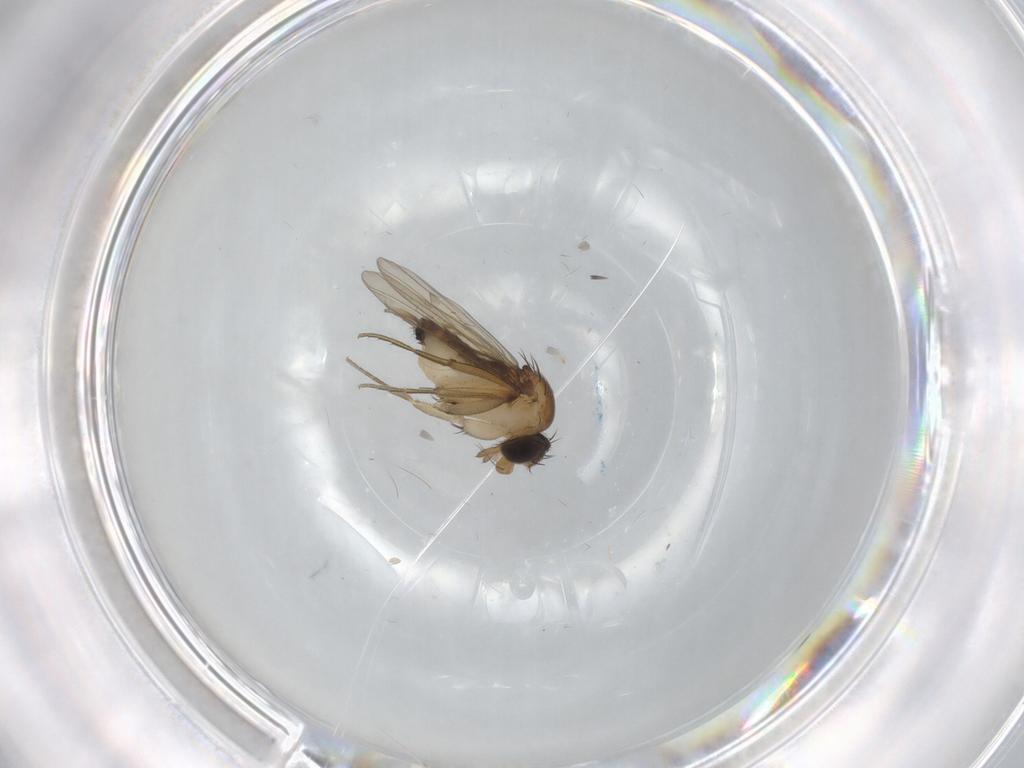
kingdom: Animalia
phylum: Arthropoda
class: Insecta
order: Diptera
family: Phoridae
